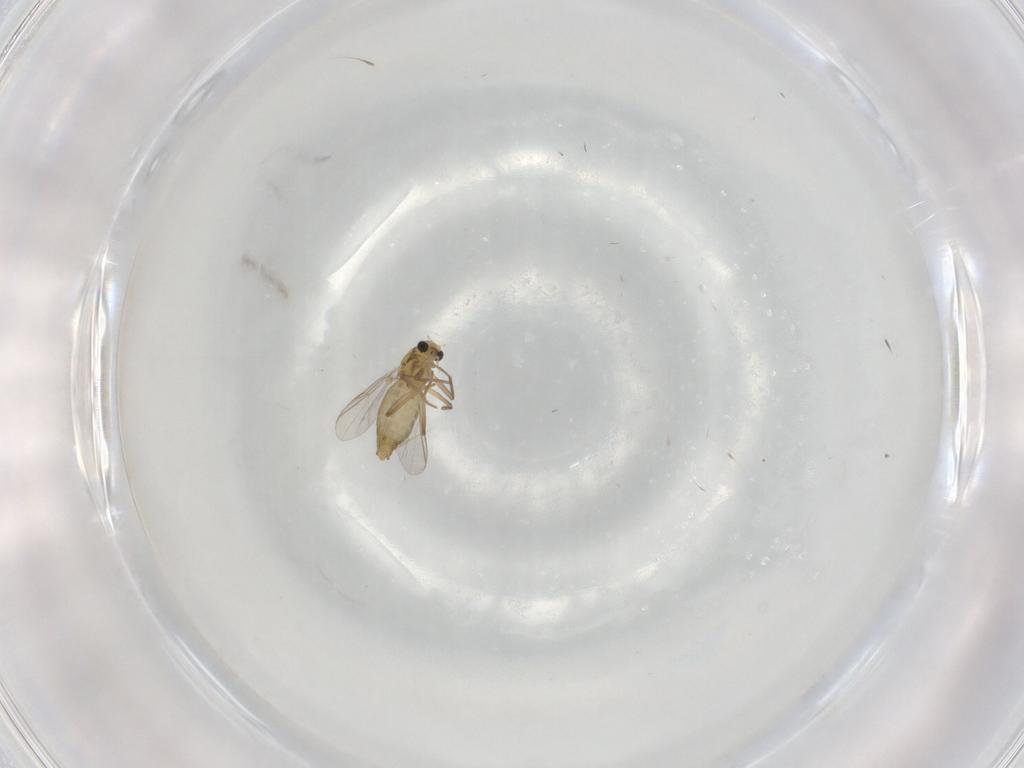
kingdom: Animalia
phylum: Arthropoda
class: Insecta
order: Diptera
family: Chironomidae
